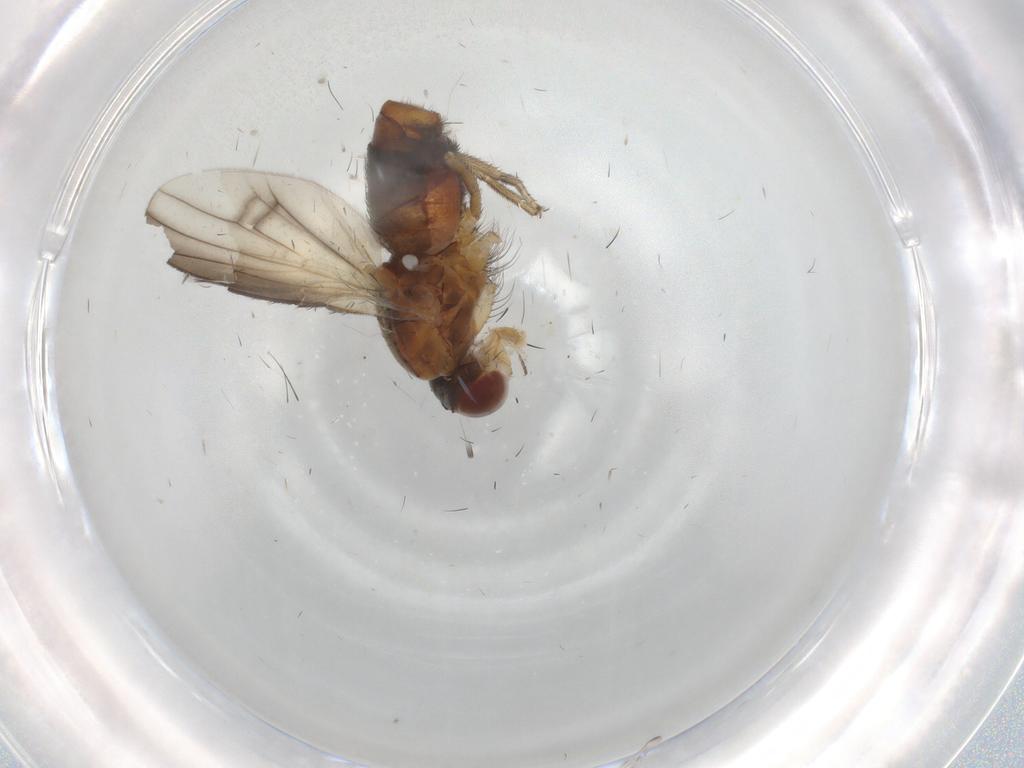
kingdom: Animalia
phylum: Arthropoda
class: Insecta
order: Diptera
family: Heleomyzidae
